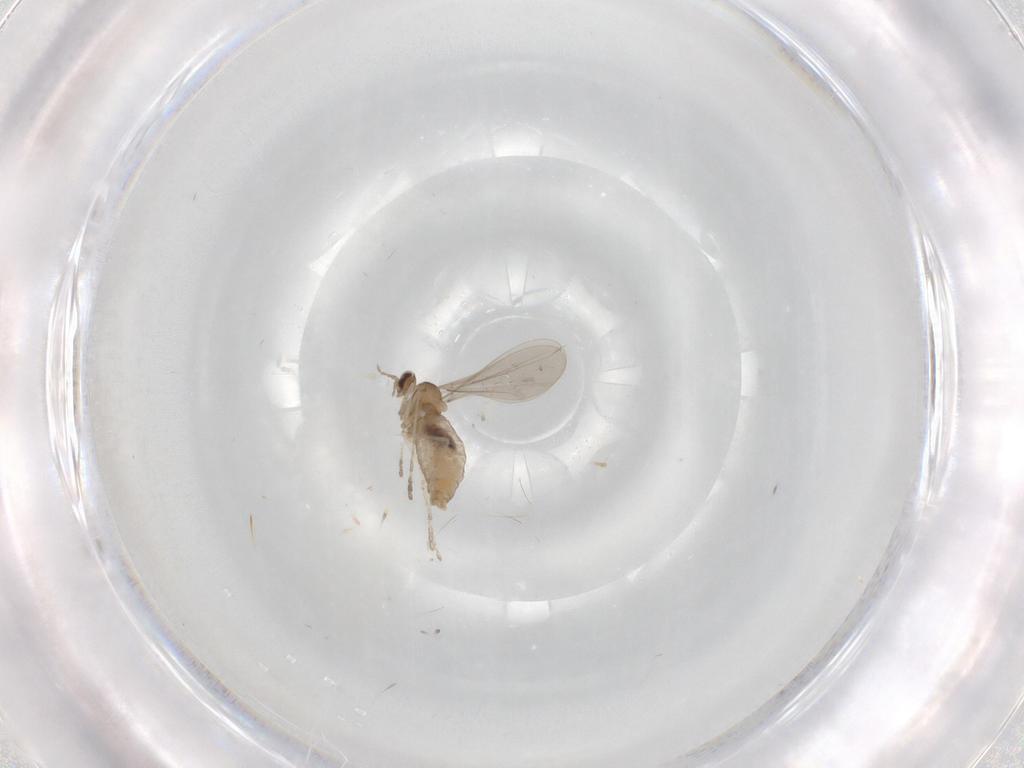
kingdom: Animalia
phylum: Arthropoda
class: Insecta
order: Diptera
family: Cecidomyiidae
